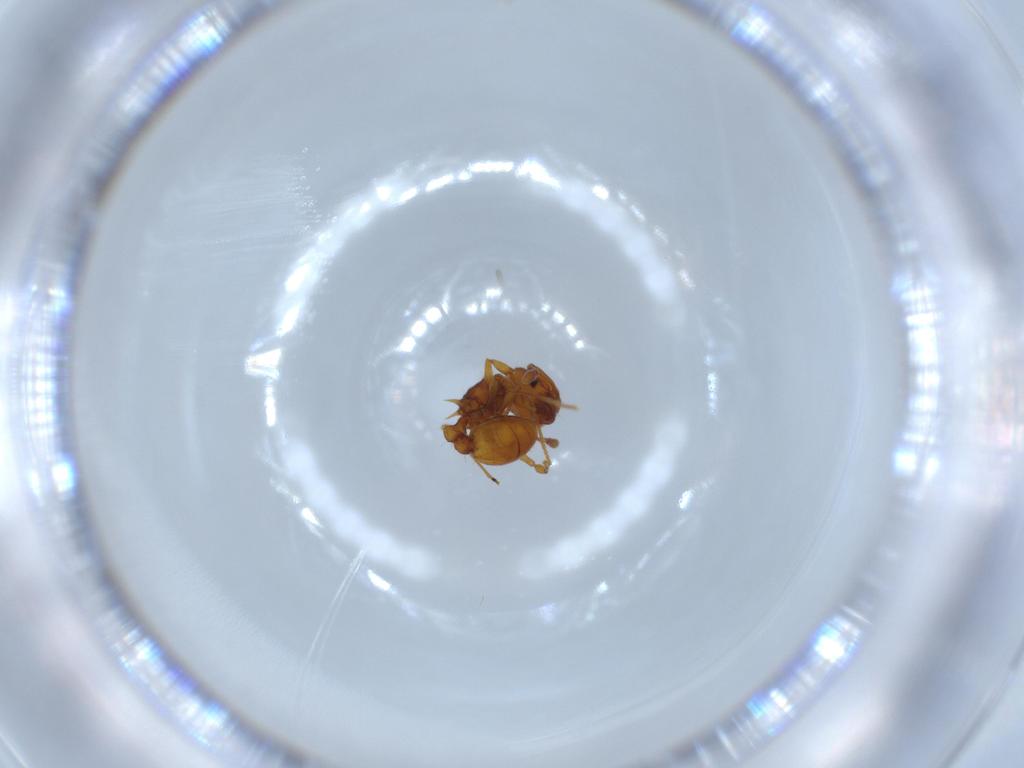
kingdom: Animalia
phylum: Arthropoda
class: Insecta
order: Hymenoptera
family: Formicidae
